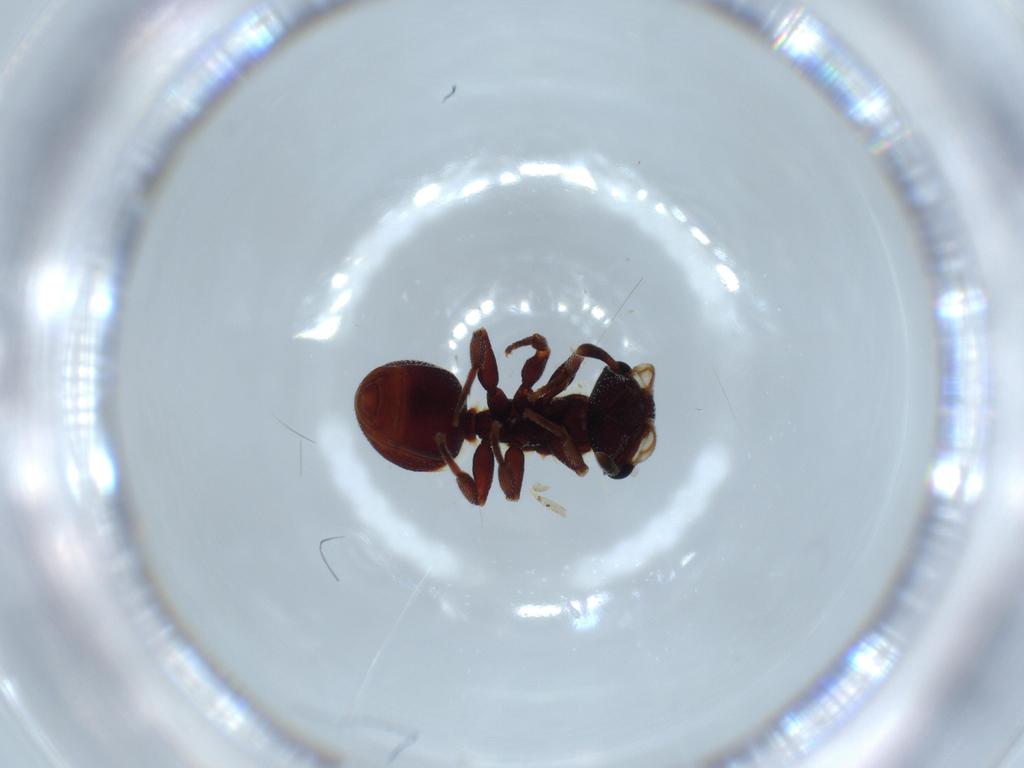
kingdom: Animalia
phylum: Arthropoda
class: Insecta
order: Hymenoptera
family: Formicidae
